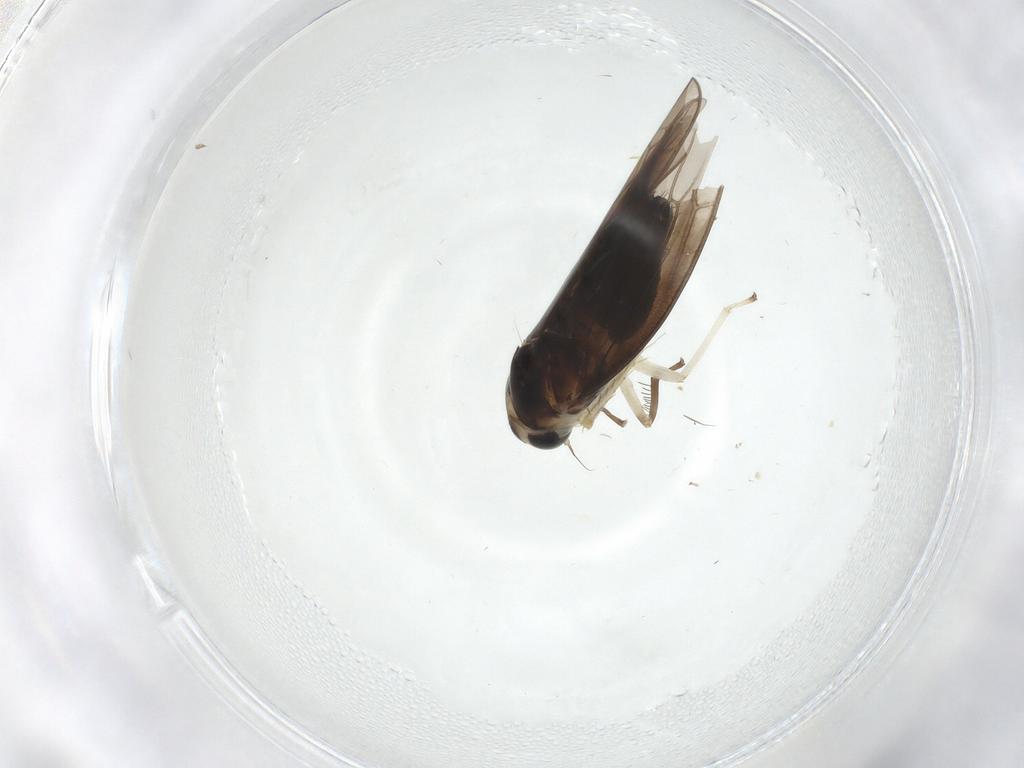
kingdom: Animalia
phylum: Arthropoda
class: Insecta
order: Hemiptera
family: Cicadellidae
